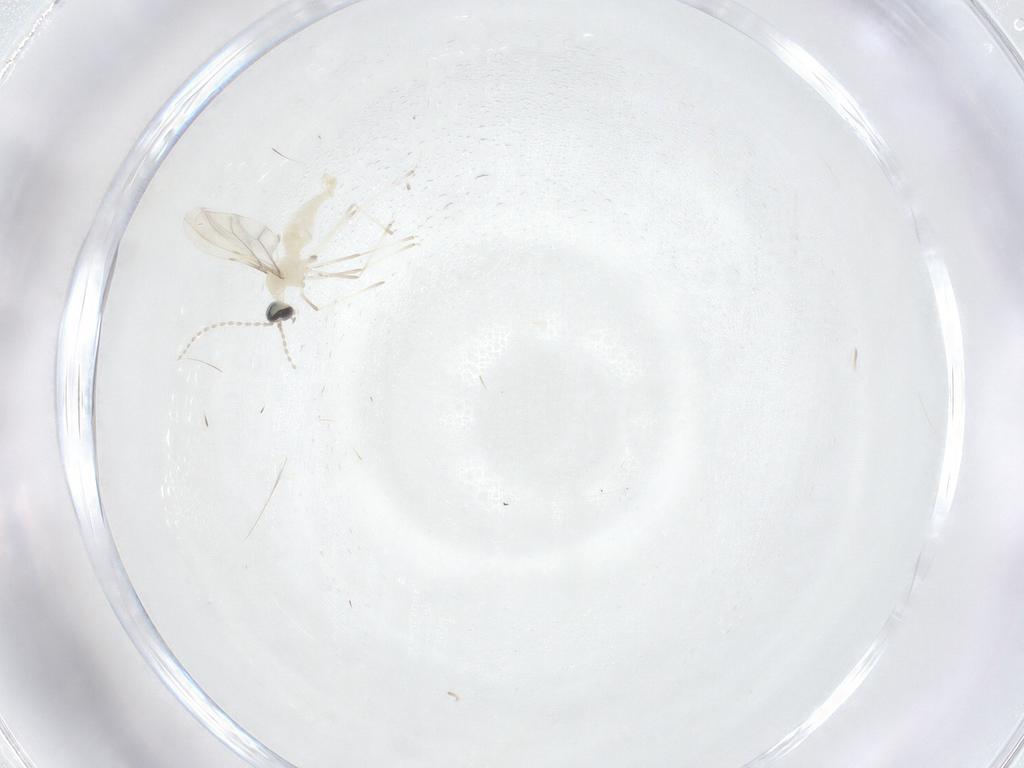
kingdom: Animalia
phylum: Arthropoda
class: Insecta
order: Diptera
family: Cecidomyiidae
